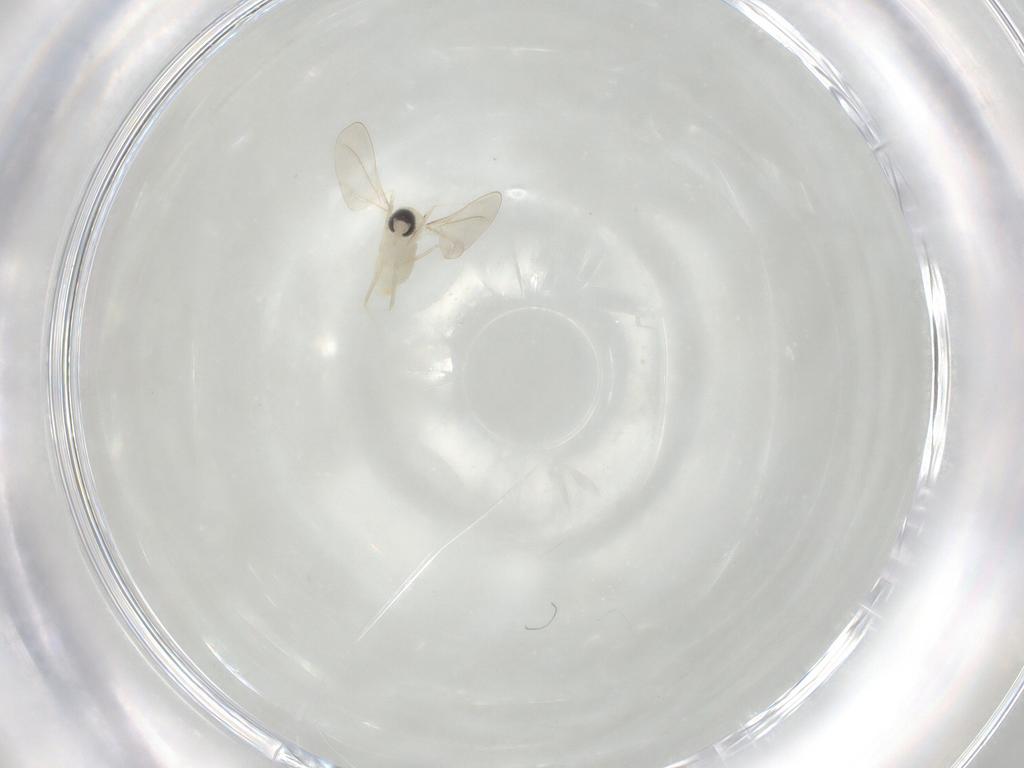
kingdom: Animalia
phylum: Arthropoda
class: Insecta
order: Diptera
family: Cecidomyiidae
